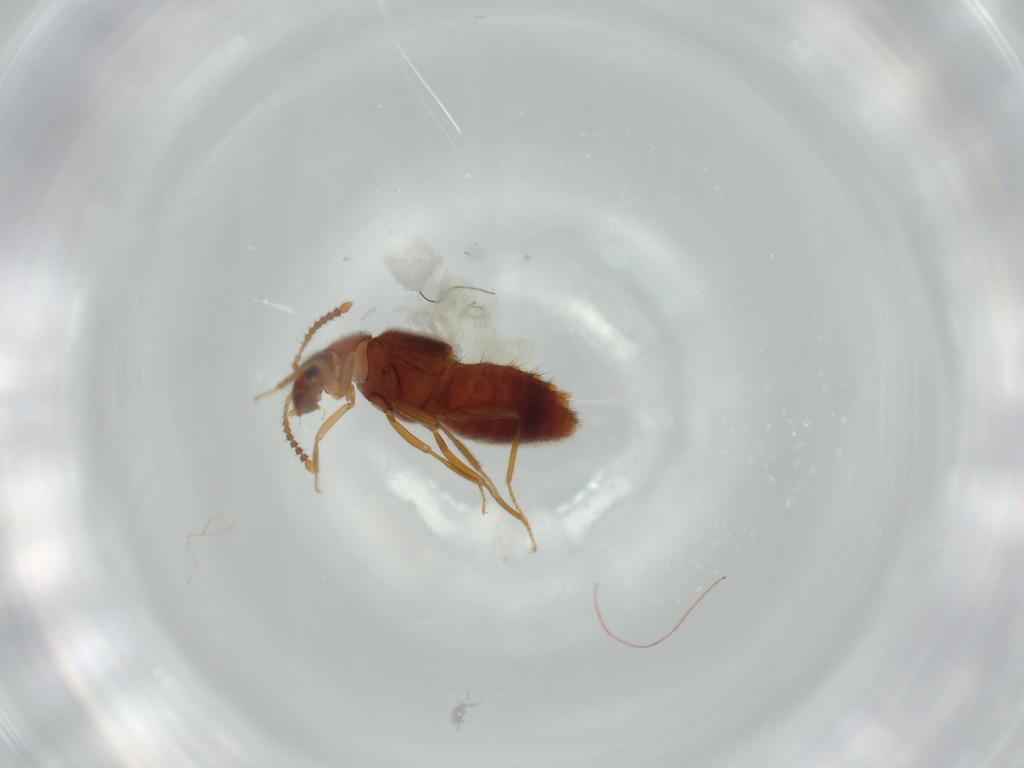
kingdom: Animalia
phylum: Arthropoda
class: Insecta
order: Coleoptera
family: Staphylinidae
